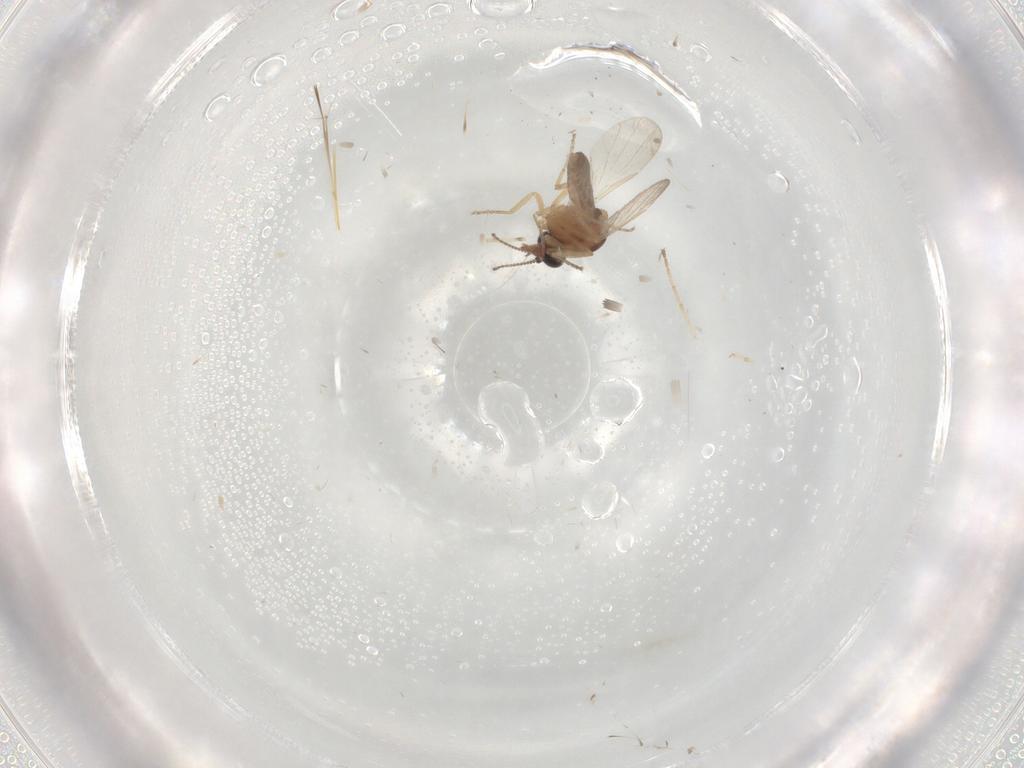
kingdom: Animalia
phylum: Arthropoda
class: Insecta
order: Diptera
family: Ceratopogonidae
